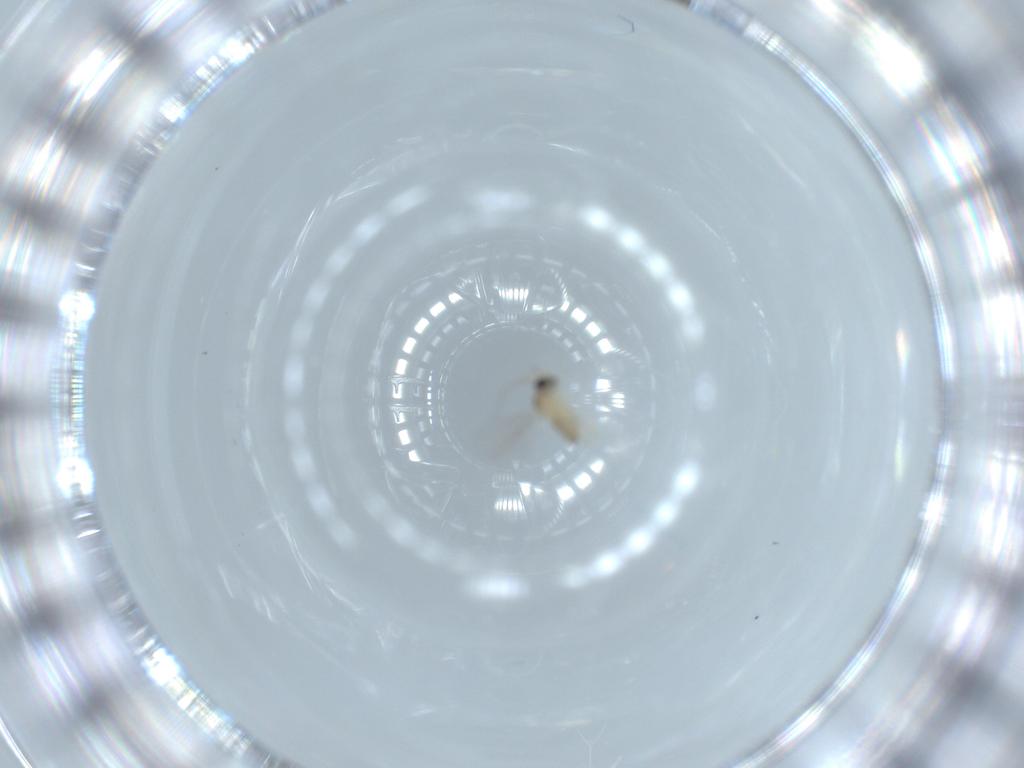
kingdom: Animalia
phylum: Arthropoda
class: Insecta
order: Diptera
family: Cecidomyiidae
